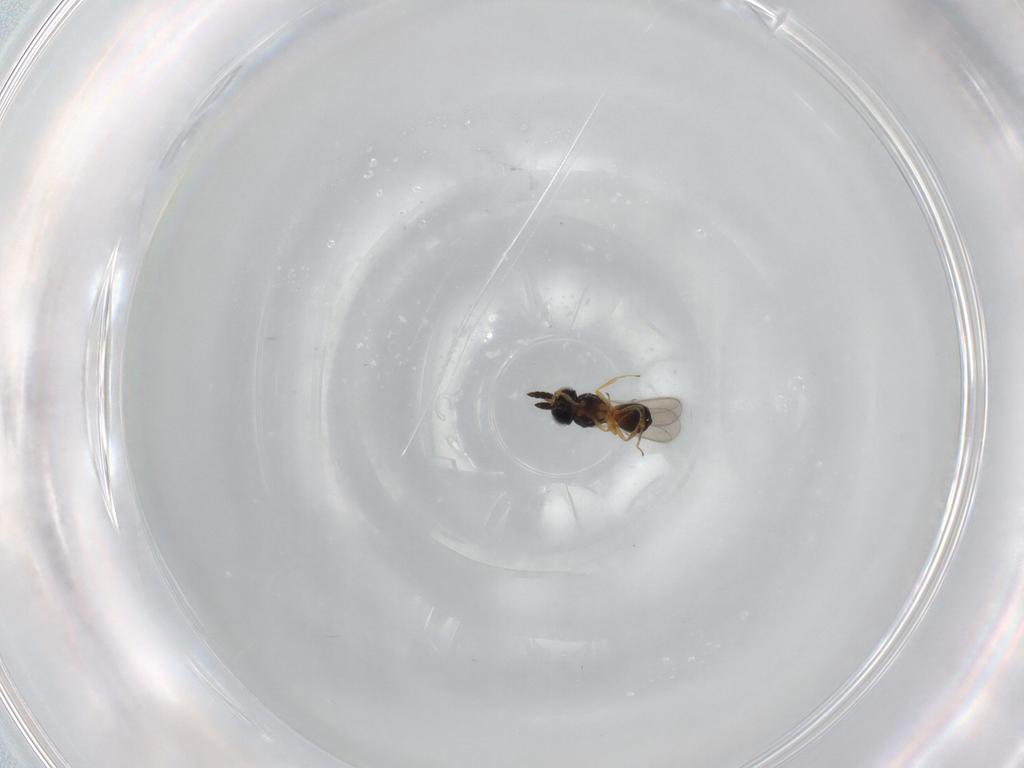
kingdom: Animalia
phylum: Arthropoda
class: Insecta
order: Hymenoptera
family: Scelionidae
